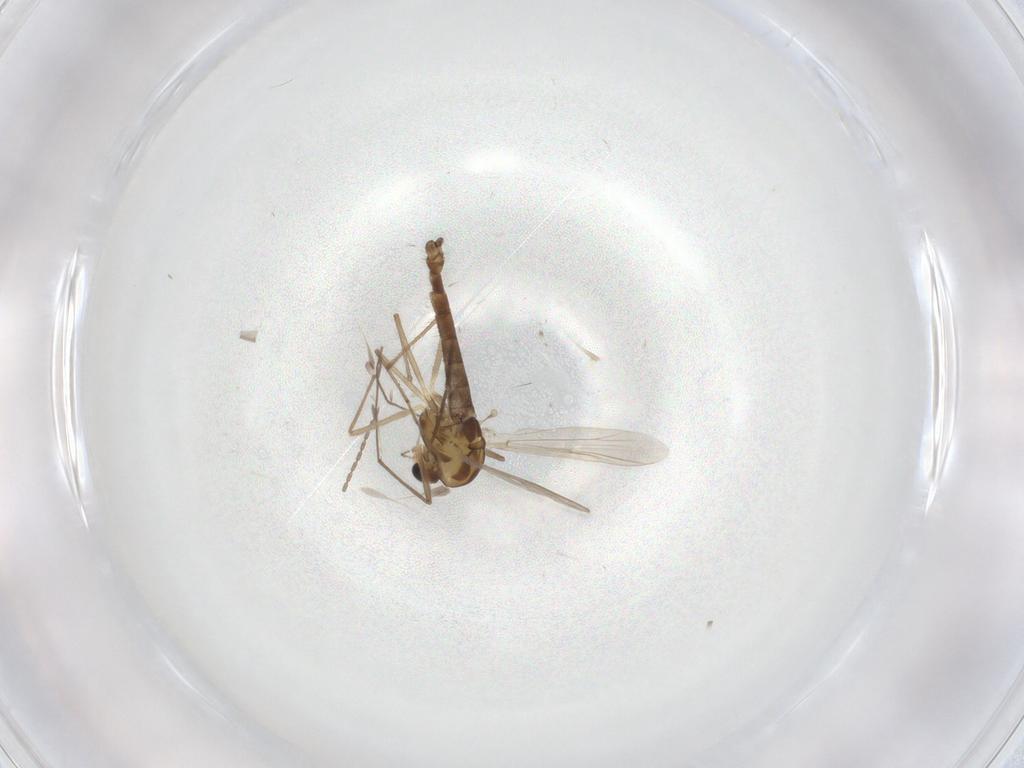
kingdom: Animalia
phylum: Arthropoda
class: Insecta
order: Diptera
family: Chironomidae
